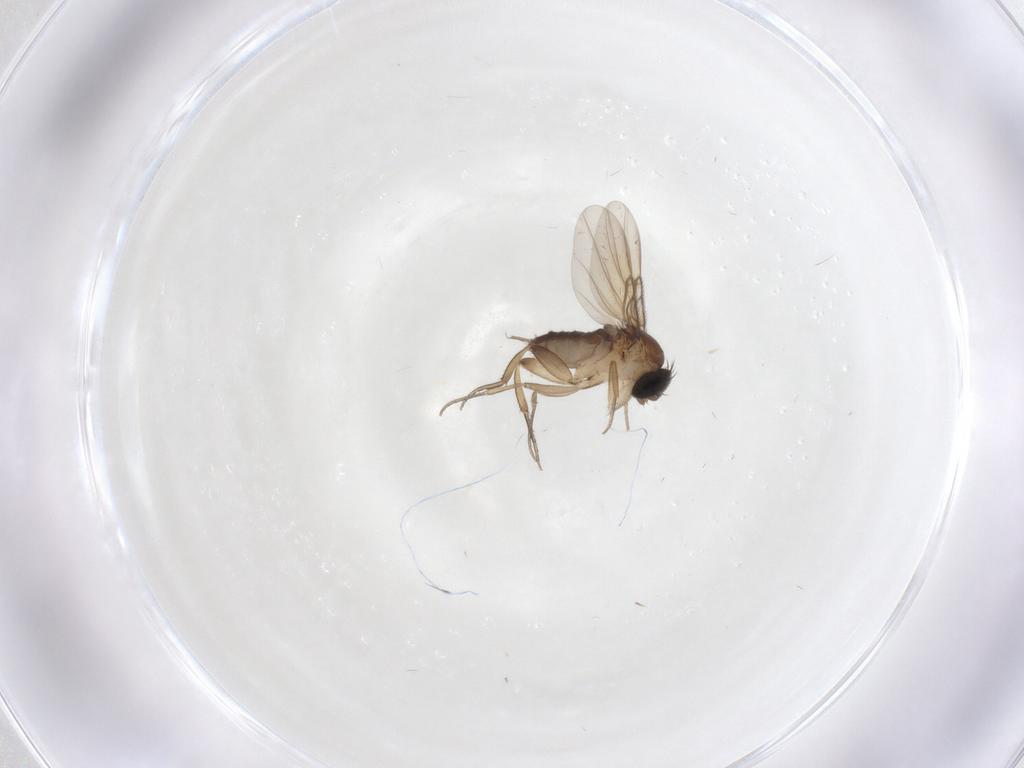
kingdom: Animalia
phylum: Arthropoda
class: Insecta
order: Diptera
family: Phoridae
